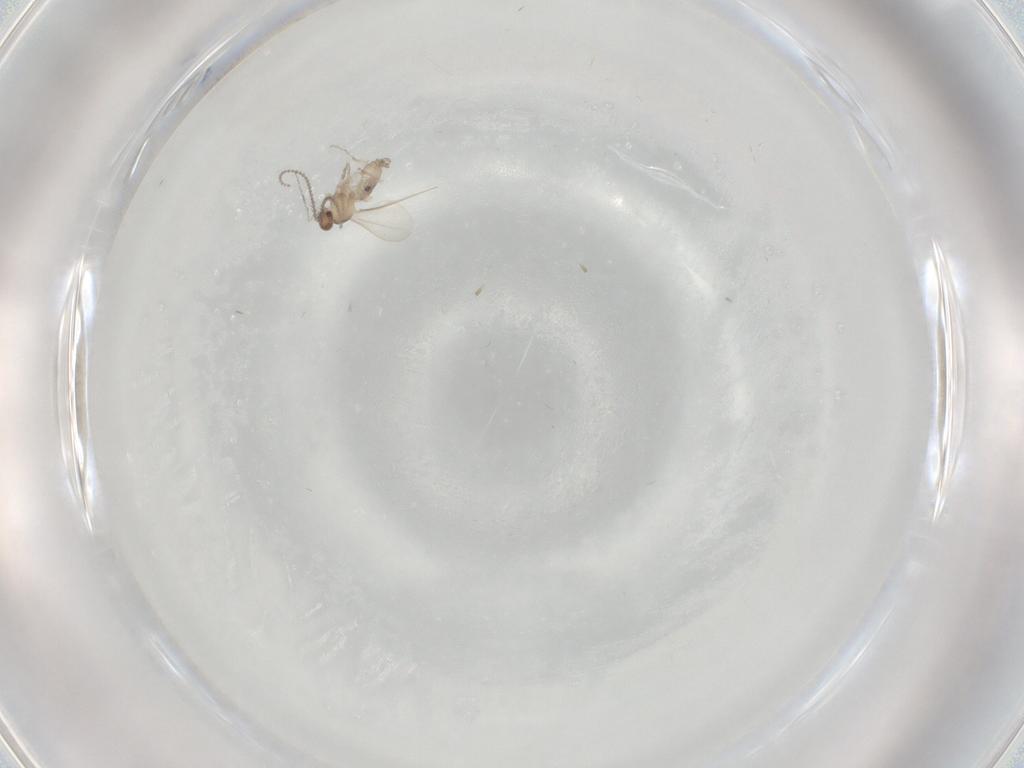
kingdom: Animalia
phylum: Arthropoda
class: Insecta
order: Diptera
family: Cecidomyiidae
